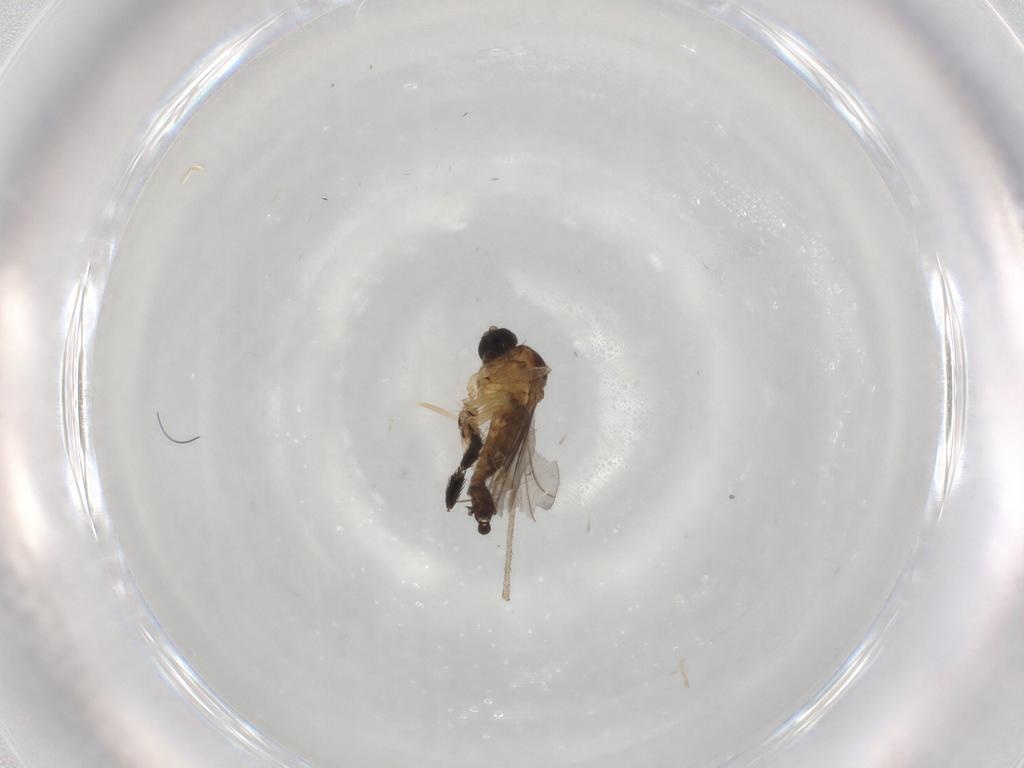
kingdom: Animalia
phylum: Arthropoda
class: Insecta
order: Diptera
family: Sciaridae
